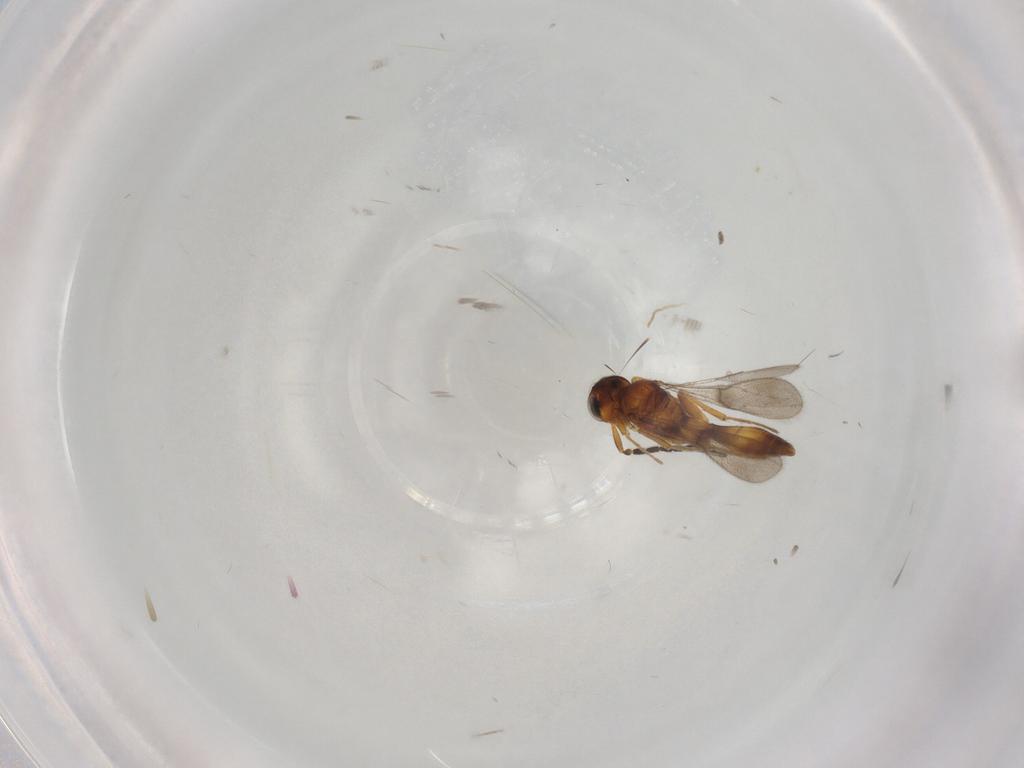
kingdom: Animalia
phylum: Arthropoda
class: Insecta
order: Hymenoptera
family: Scelionidae
